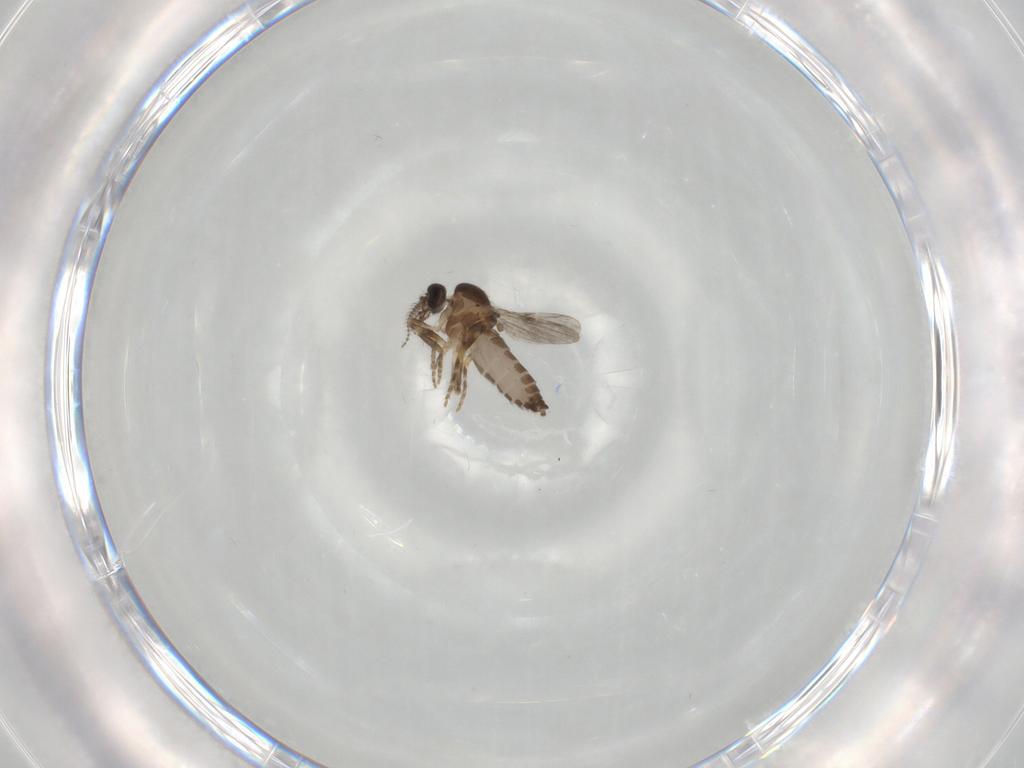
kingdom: Animalia
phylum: Arthropoda
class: Insecta
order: Diptera
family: Ceratopogonidae
